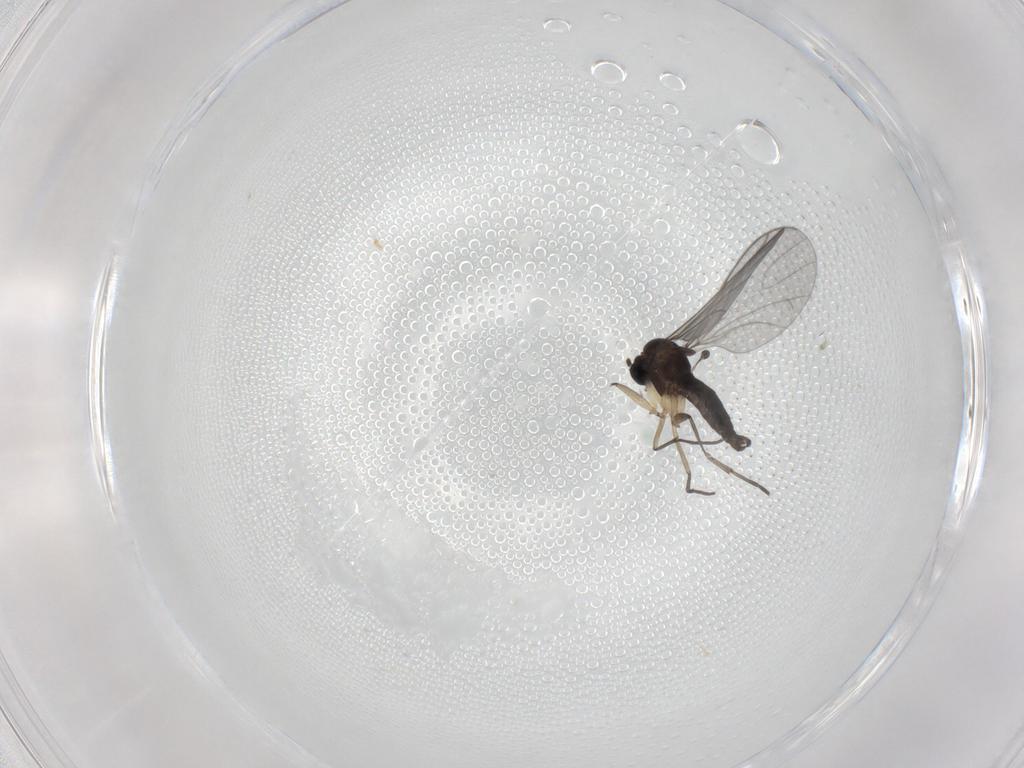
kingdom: Animalia
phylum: Arthropoda
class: Insecta
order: Diptera
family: Sciaridae
